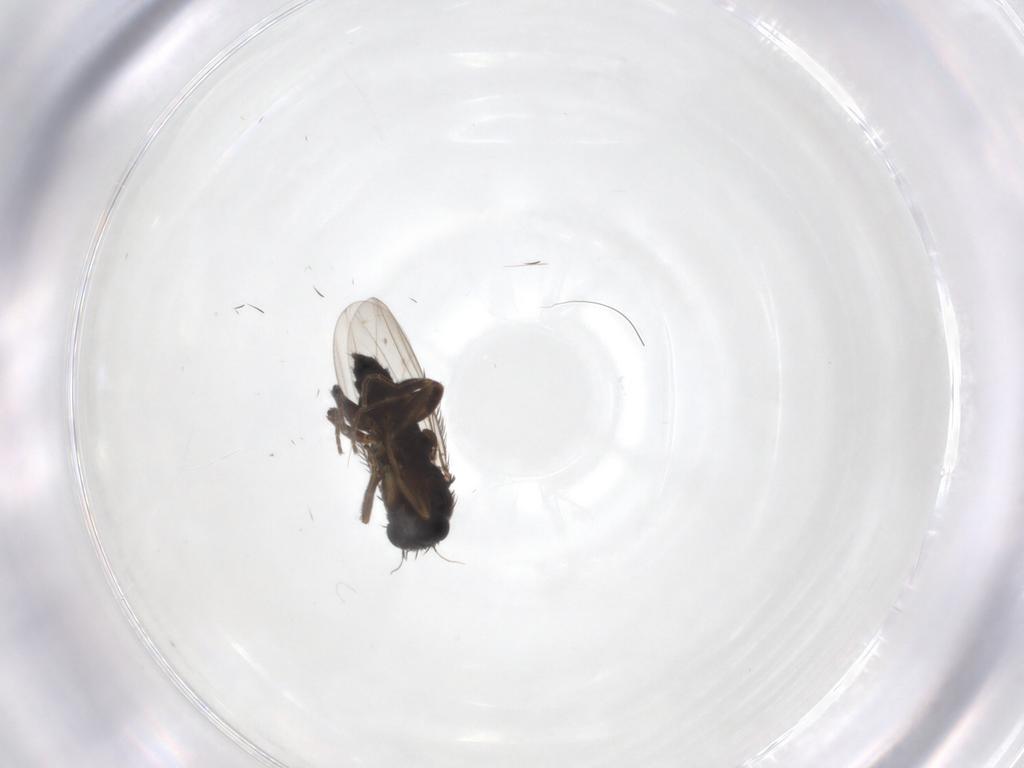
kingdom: Animalia
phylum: Arthropoda
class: Insecta
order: Diptera
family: Phoridae
